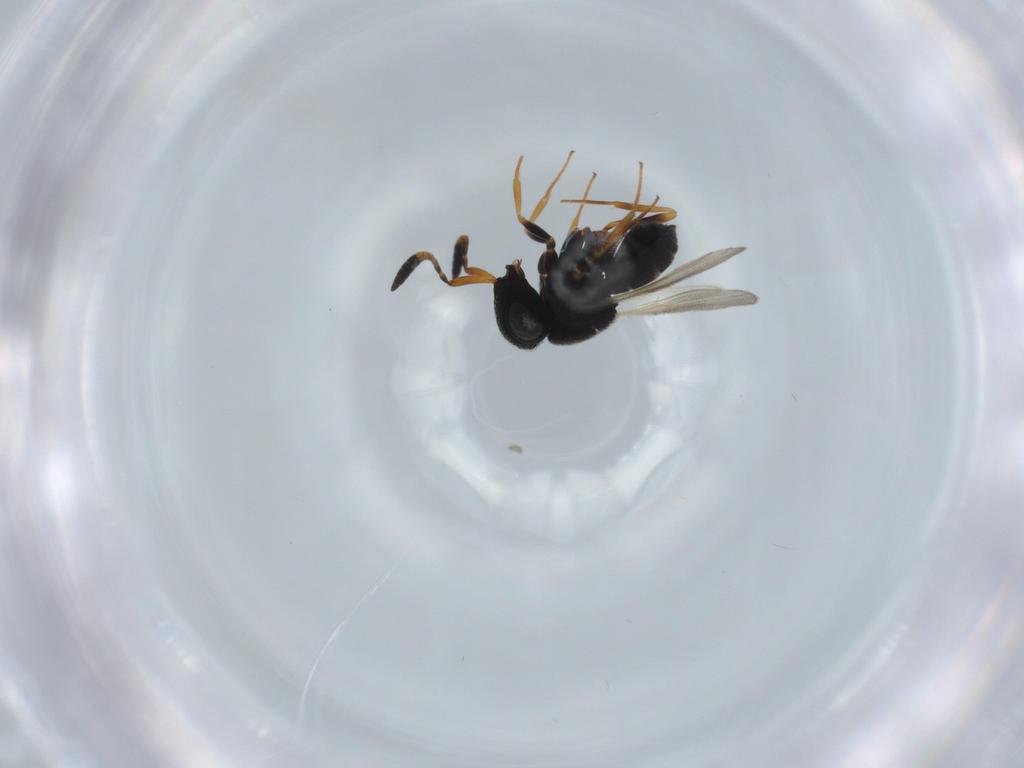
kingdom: Animalia
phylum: Arthropoda
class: Insecta
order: Hymenoptera
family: Scelionidae
